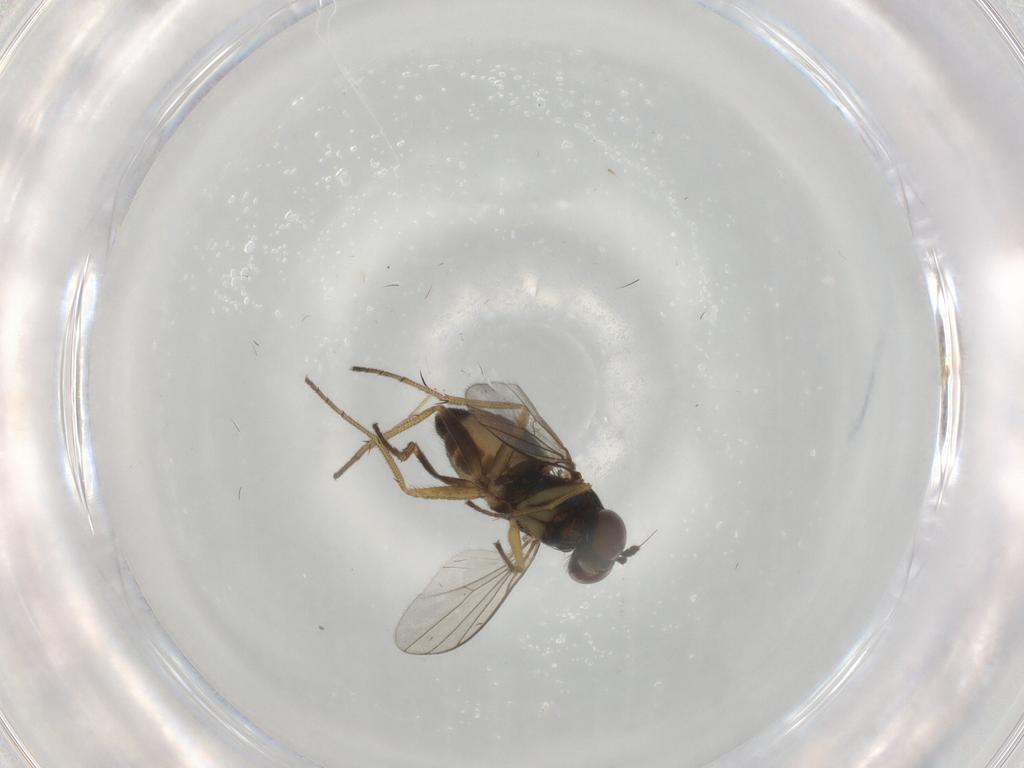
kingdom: Animalia
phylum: Arthropoda
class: Insecta
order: Diptera
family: Dolichopodidae
